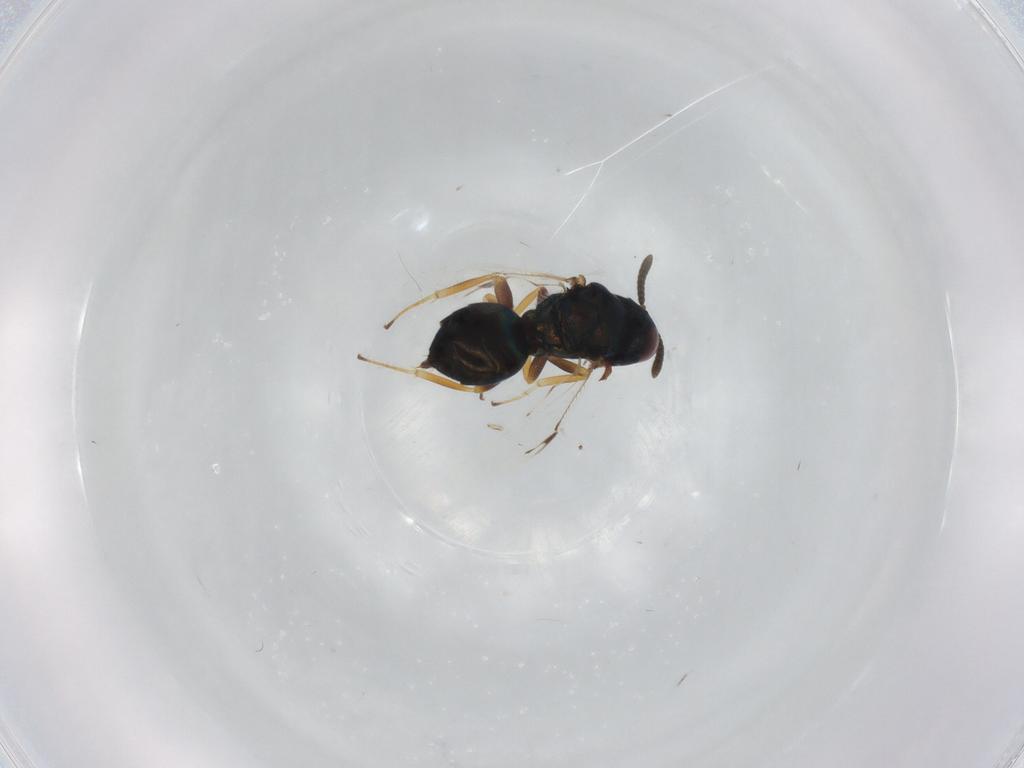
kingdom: Animalia
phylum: Arthropoda
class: Insecta
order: Hymenoptera
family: Pteromalidae
